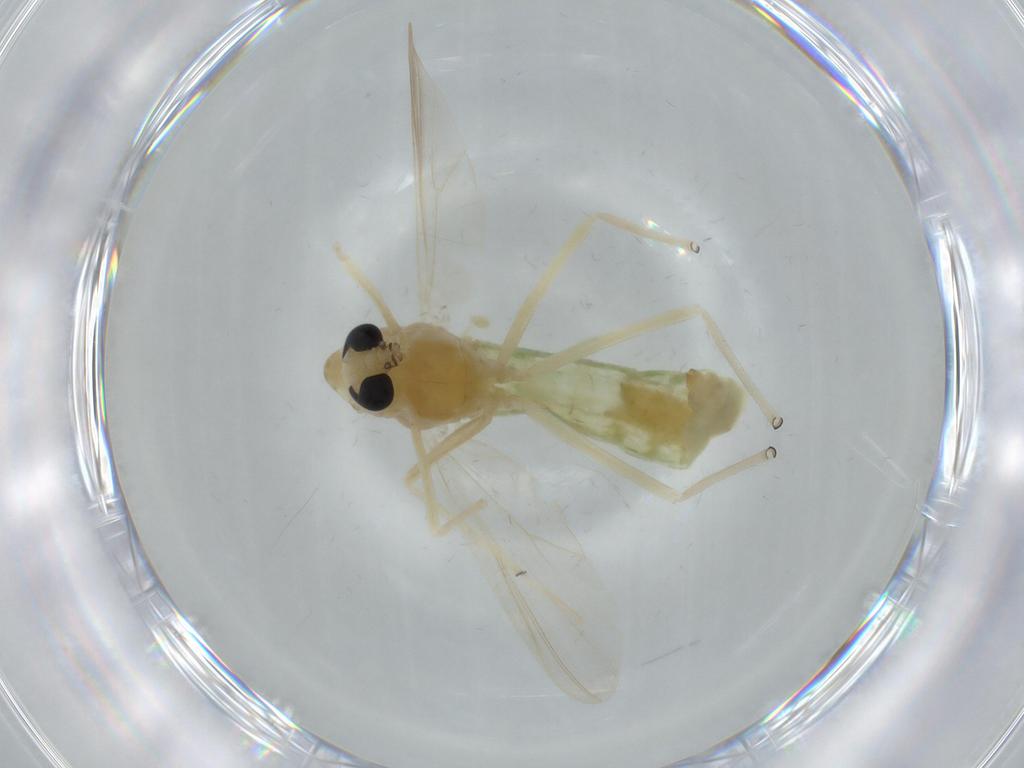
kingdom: Animalia
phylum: Arthropoda
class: Insecta
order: Diptera
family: Chironomidae
